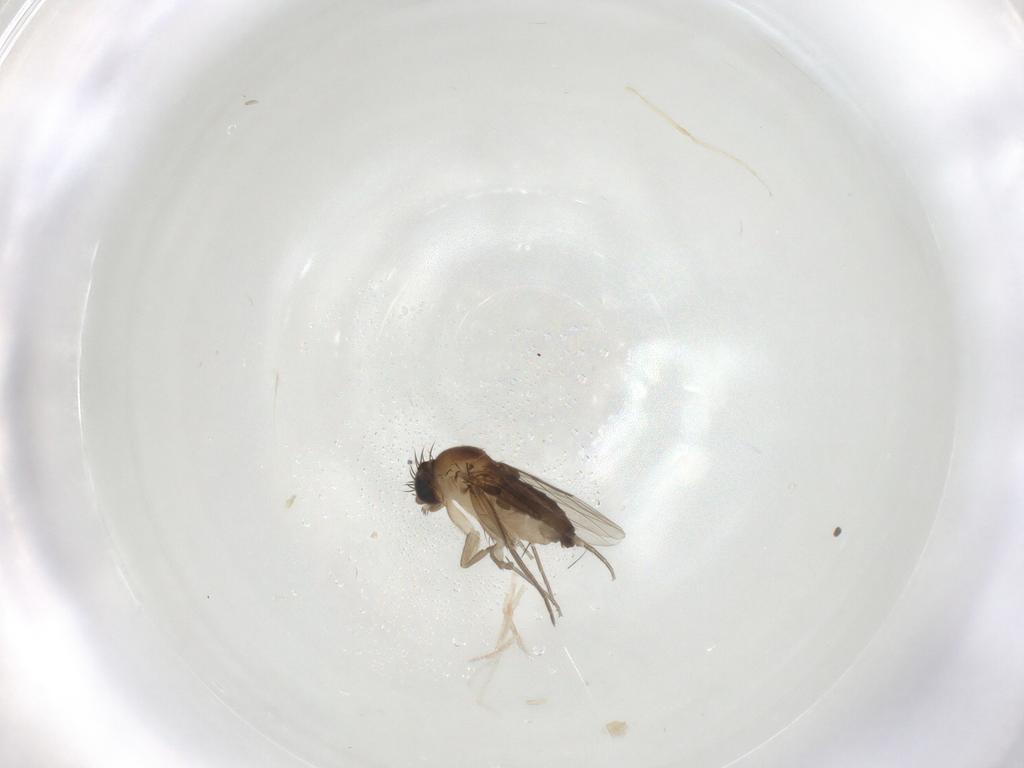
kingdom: Animalia
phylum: Arthropoda
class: Insecta
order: Diptera
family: Phoridae
